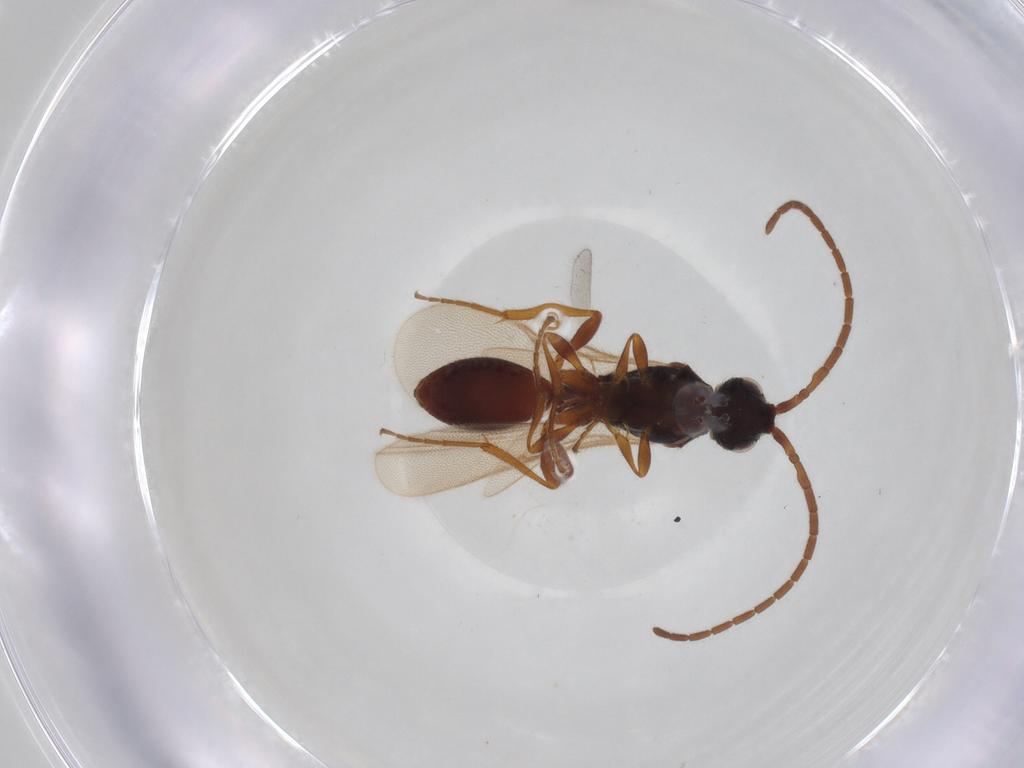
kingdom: Animalia
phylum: Arthropoda
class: Insecta
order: Hymenoptera
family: Diapriidae
